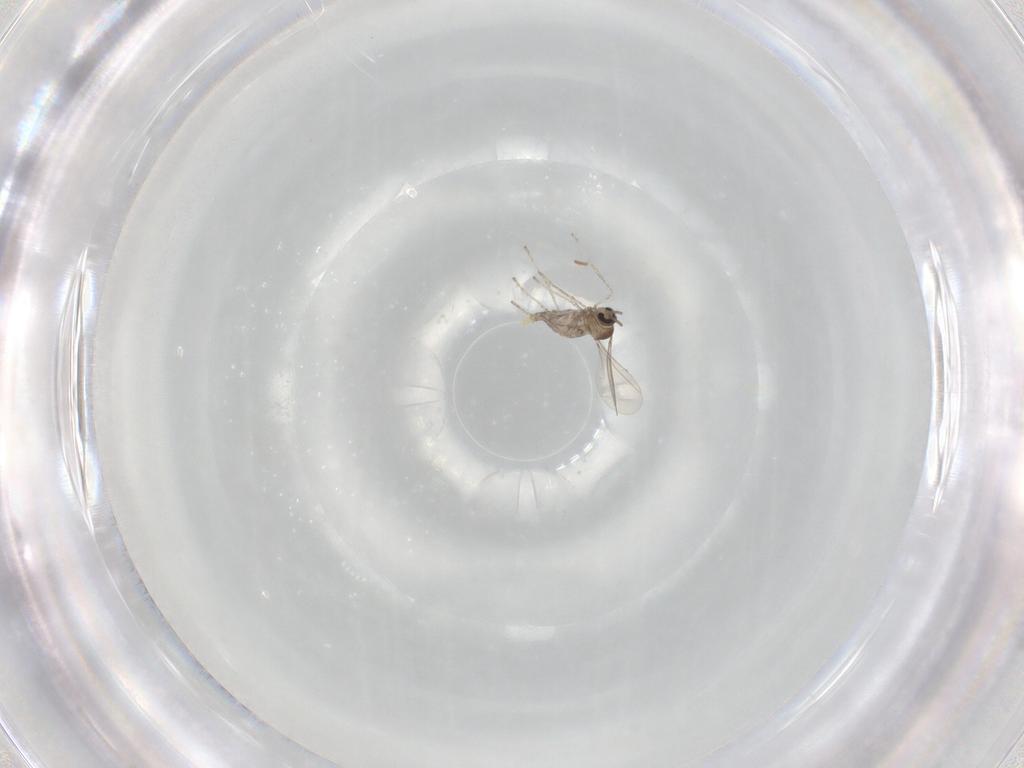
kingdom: Animalia
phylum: Arthropoda
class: Insecta
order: Diptera
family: Cecidomyiidae
